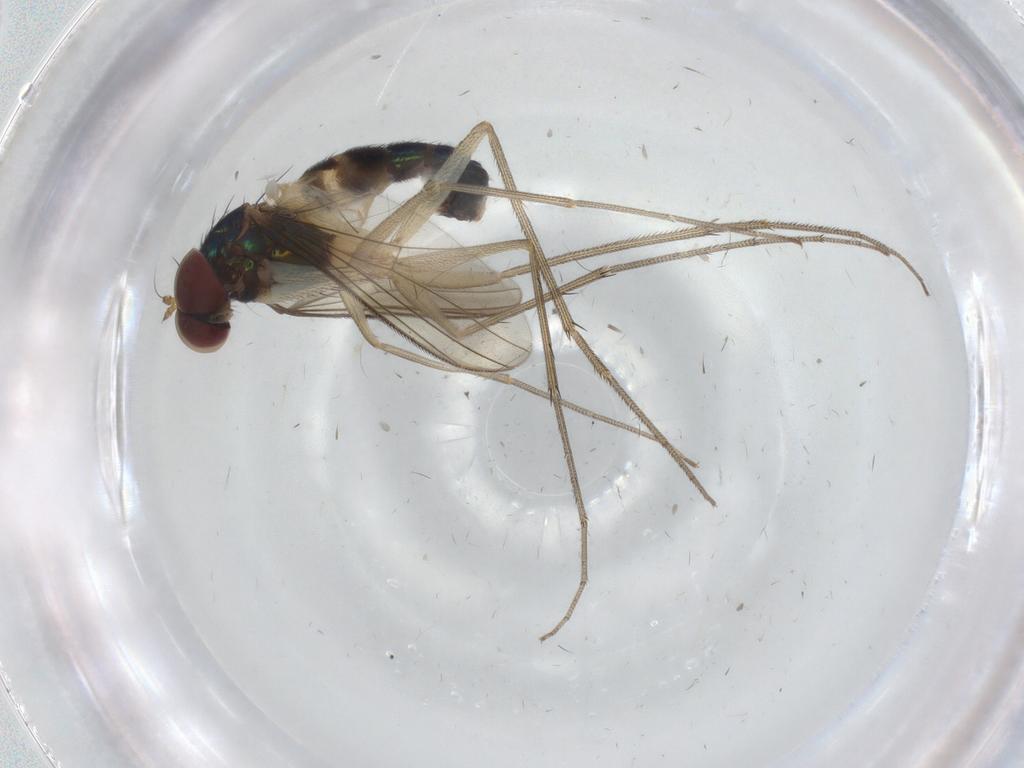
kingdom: Animalia
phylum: Arthropoda
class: Insecta
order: Diptera
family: Dolichopodidae
